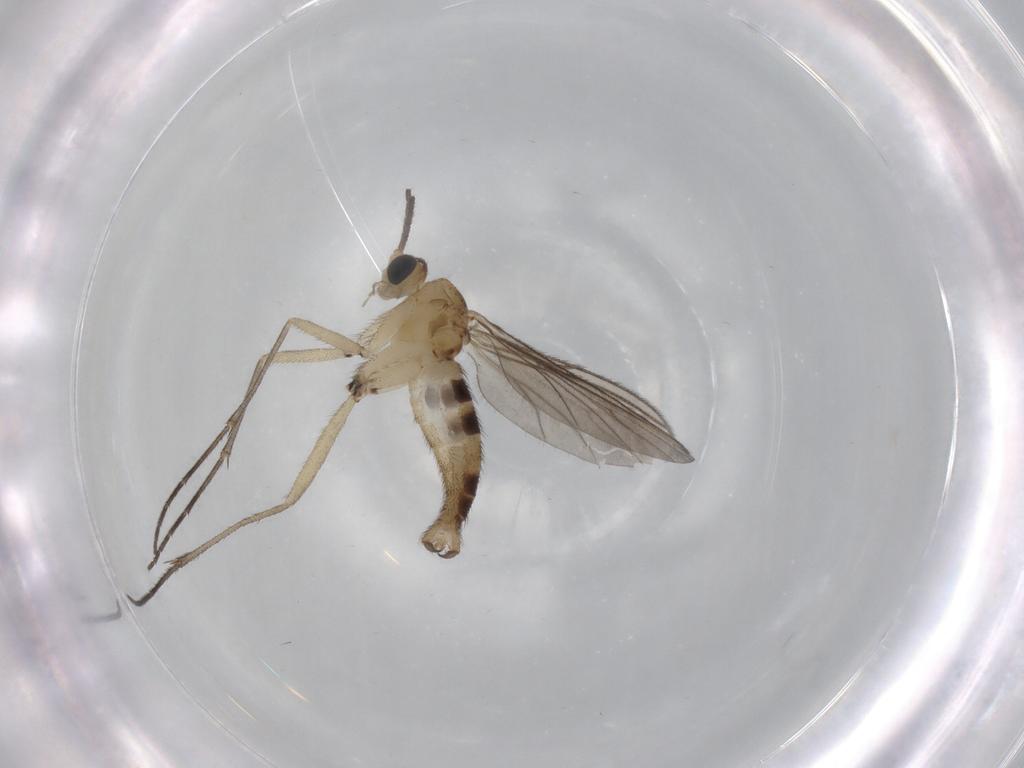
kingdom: Animalia
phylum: Arthropoda
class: Insecta
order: Diptera
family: Sciaridae
